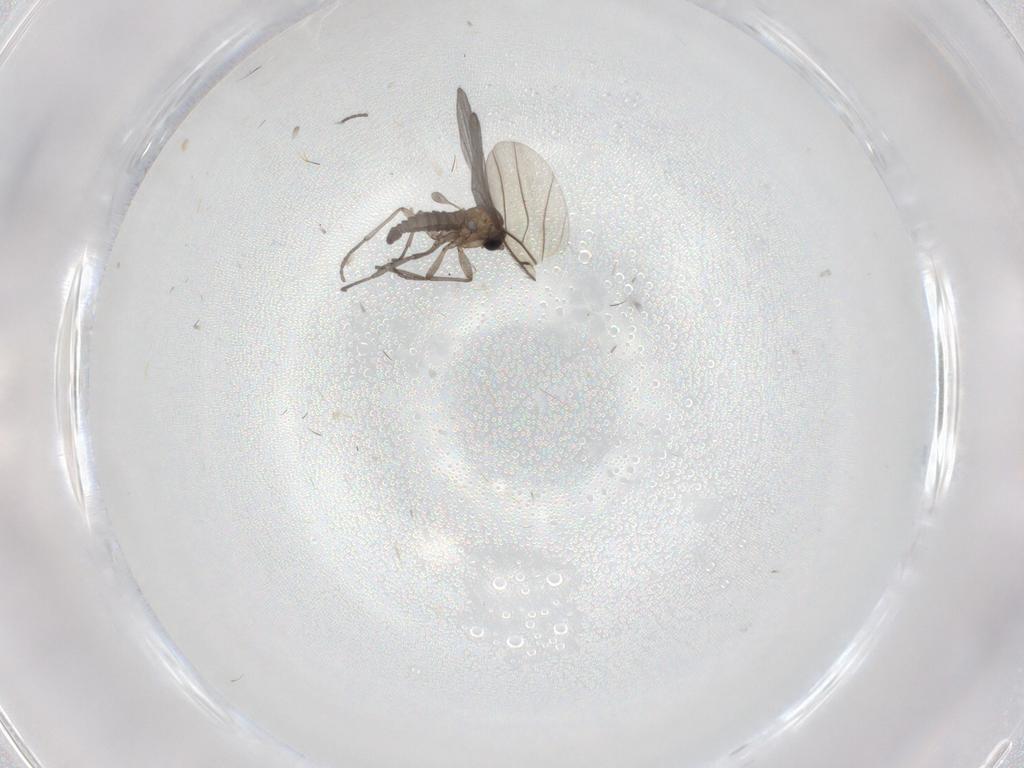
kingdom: Animalia
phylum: Arthropoda
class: Insecta
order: Diptera
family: Sciaridae
